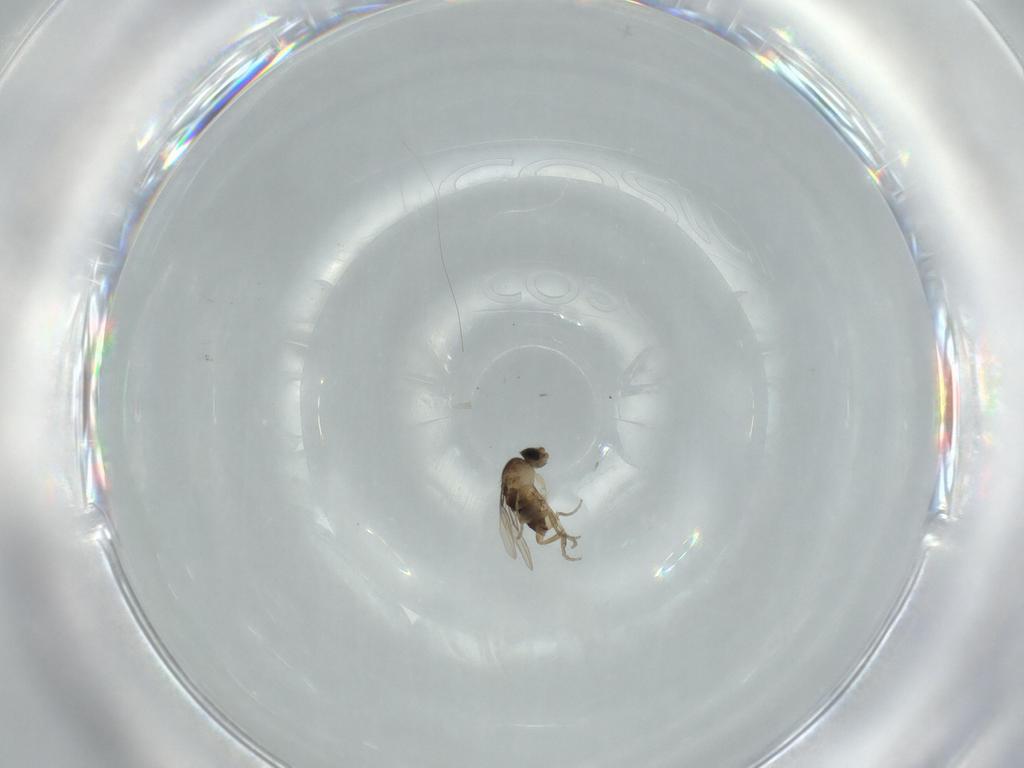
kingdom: Animalia
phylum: Arthropoda
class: Insecta
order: Diptera
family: Phoridae
